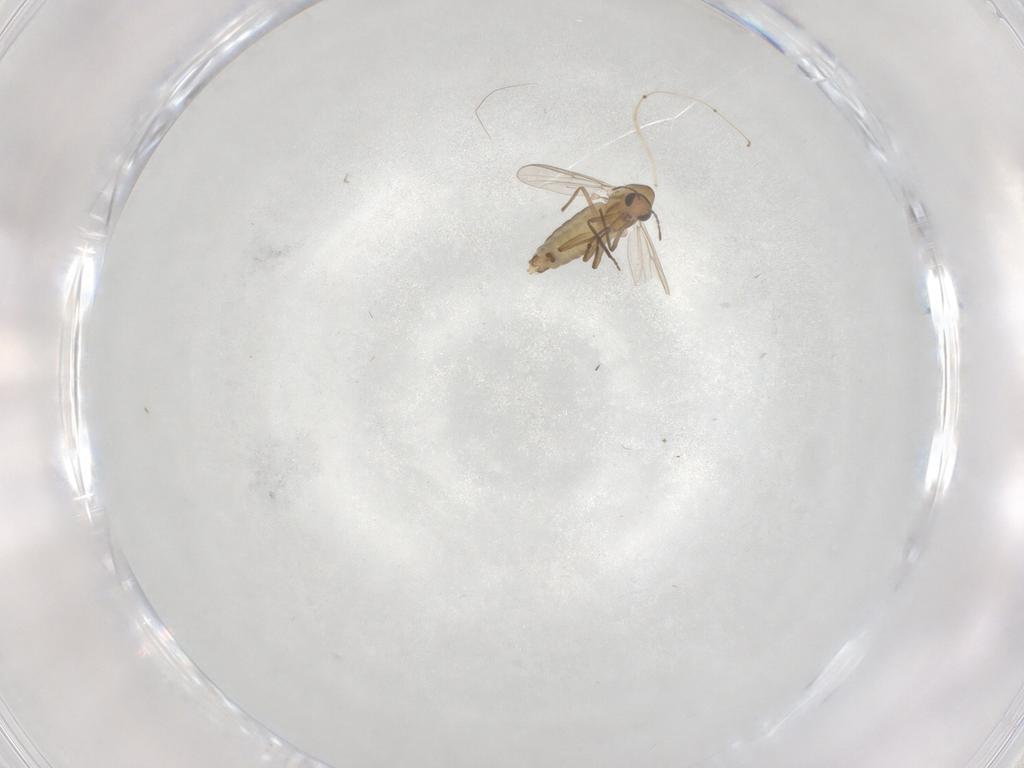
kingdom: Animalia
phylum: Arthropoda
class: Insecta
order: Diptera
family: Chironomidae
